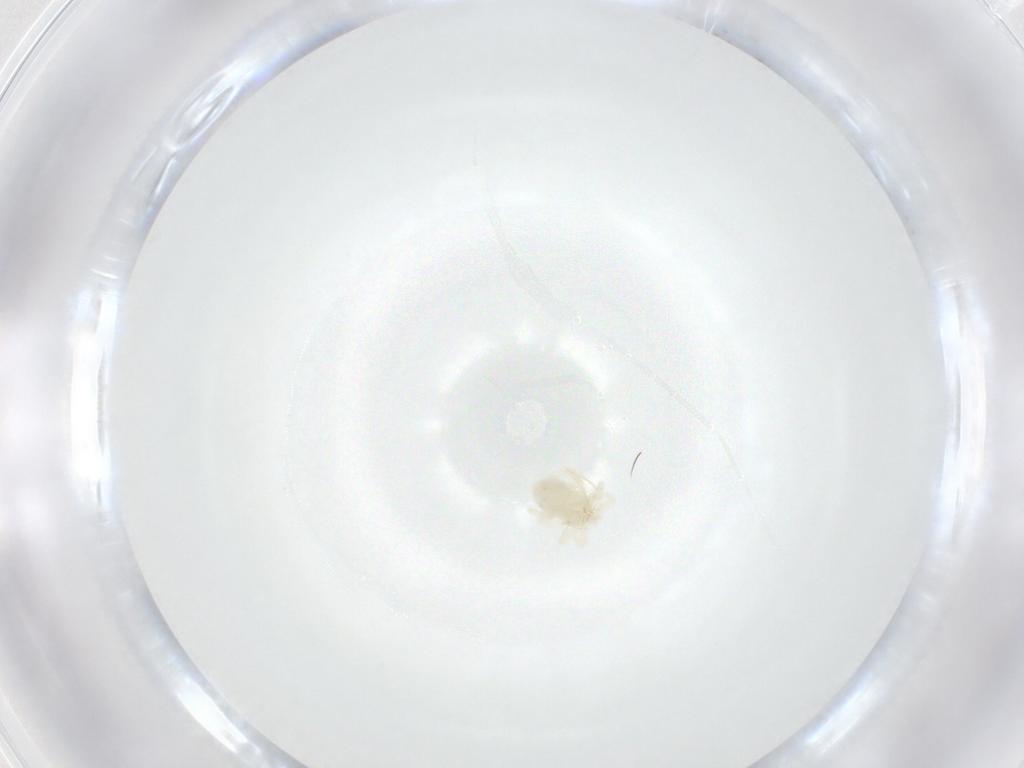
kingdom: Animalia
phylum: Arthropoda
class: Arachnida
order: Trombidiformes
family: Anystidae
